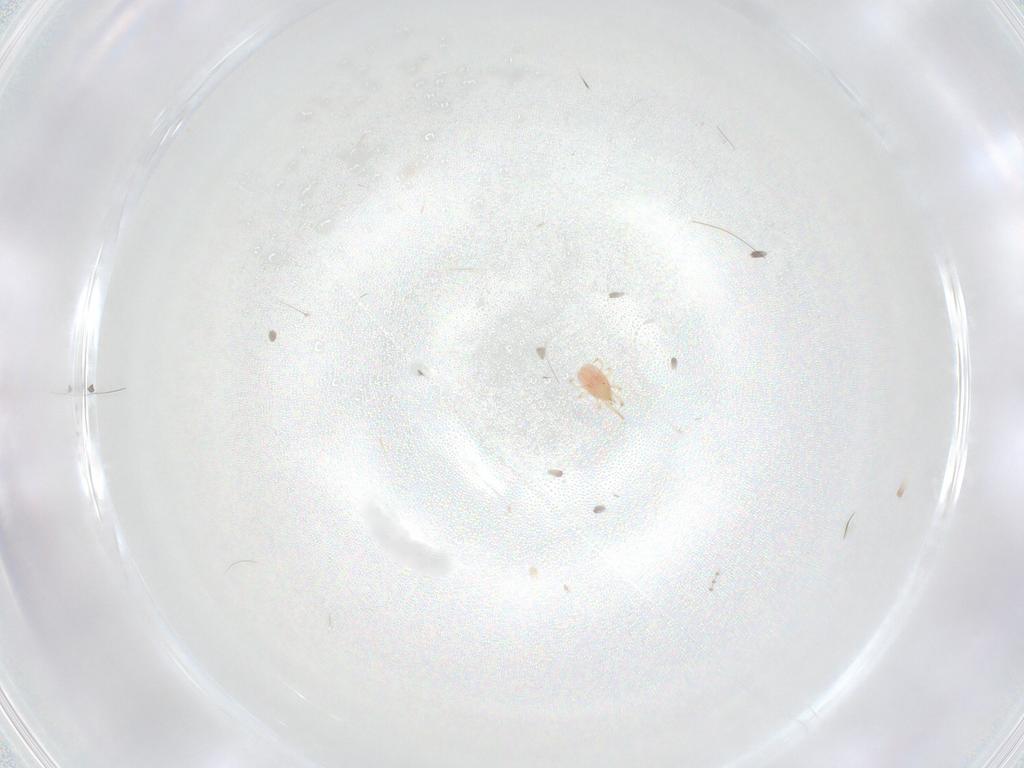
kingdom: Animalia
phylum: Arthropoda
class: Arachnida
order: Mesostigmata
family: Phytoseiidae
